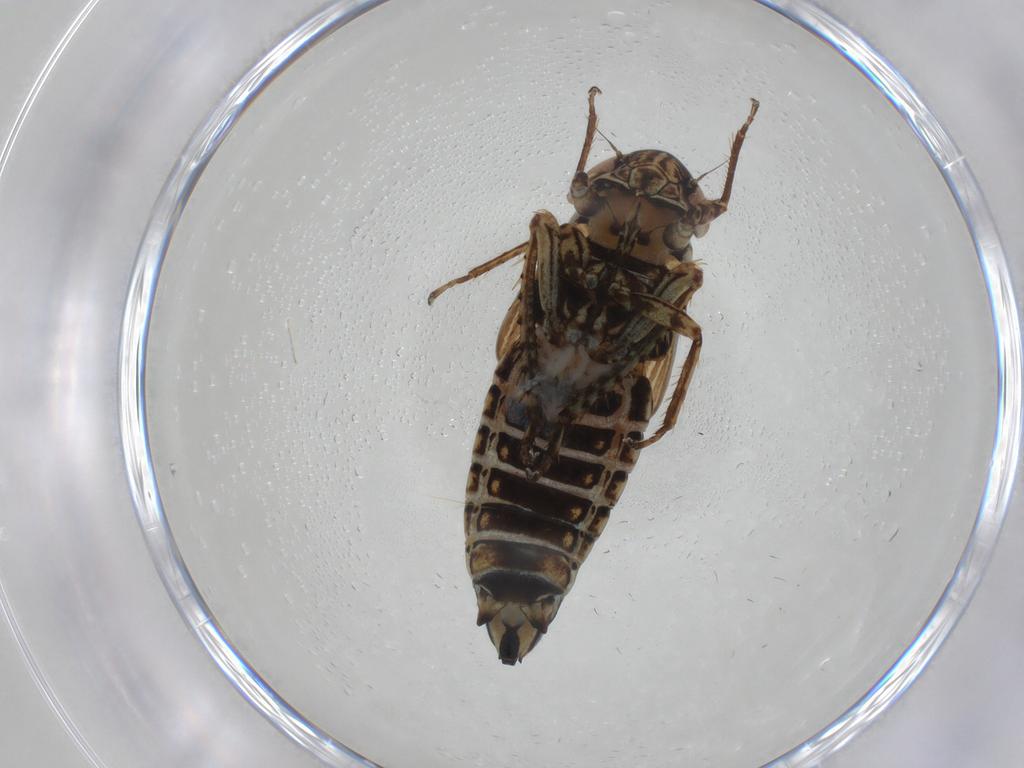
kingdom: Animalia
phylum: Arthropoda
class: Insecta
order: Hemiptera
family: Cicadellidae
